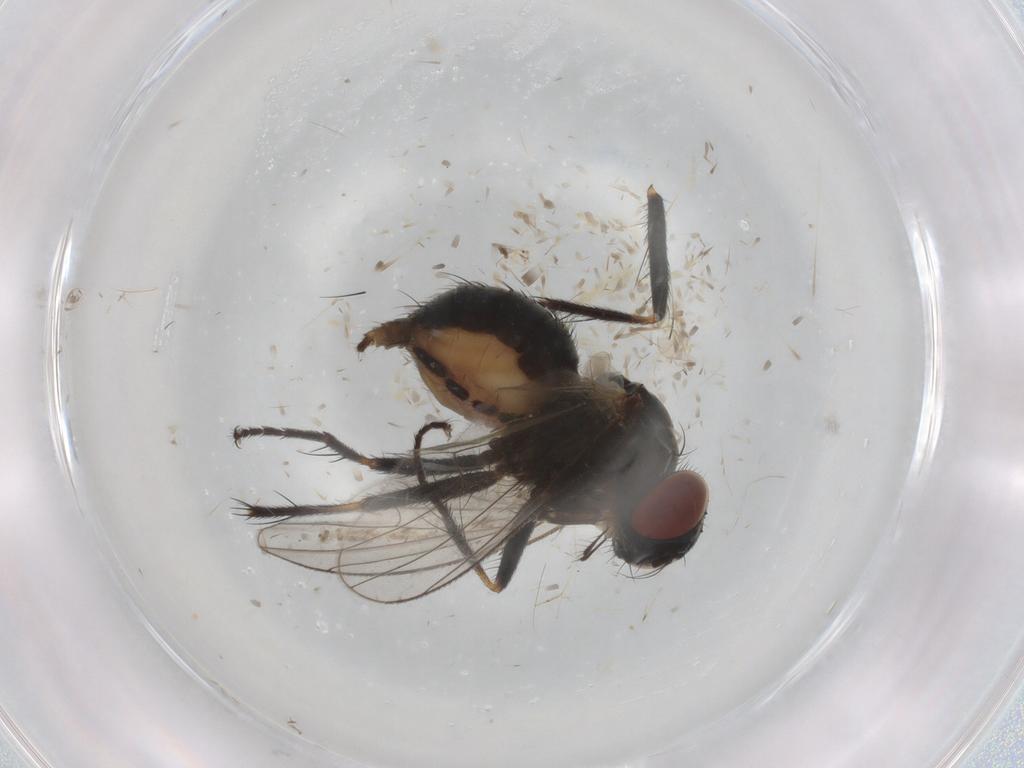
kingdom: Animalia
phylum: Arthropoda
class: Insecta
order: Diptera
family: Muscidae
